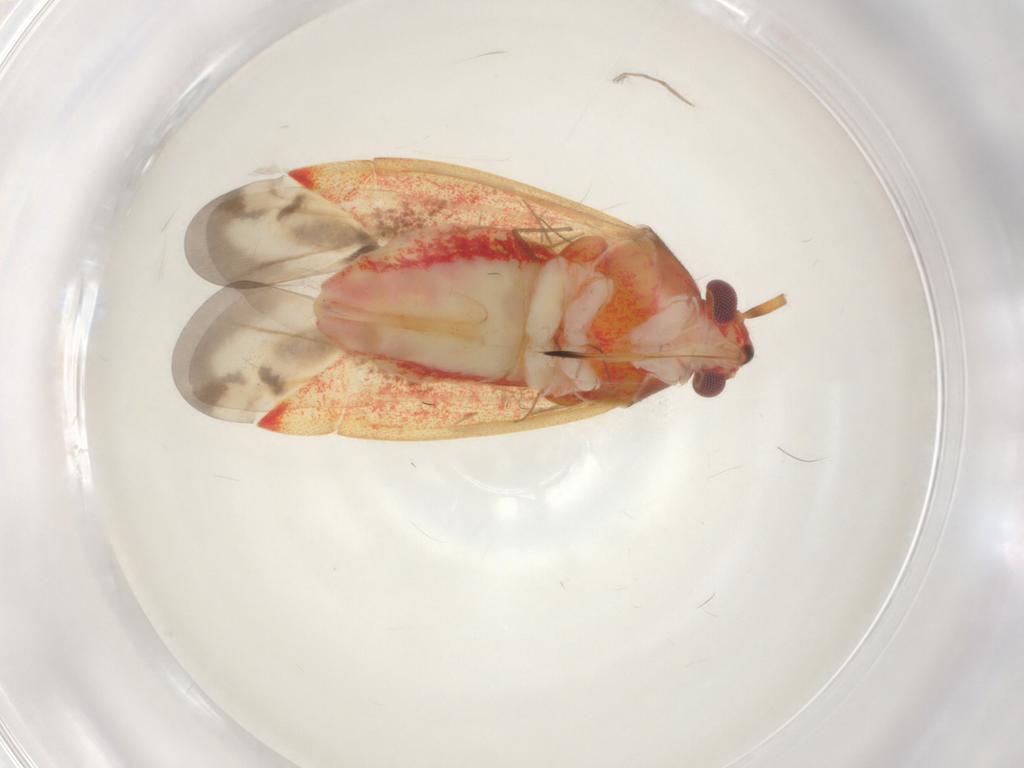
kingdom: Animalia
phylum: Arthropoda
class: Insecta
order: Hemiptera
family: Miridae
